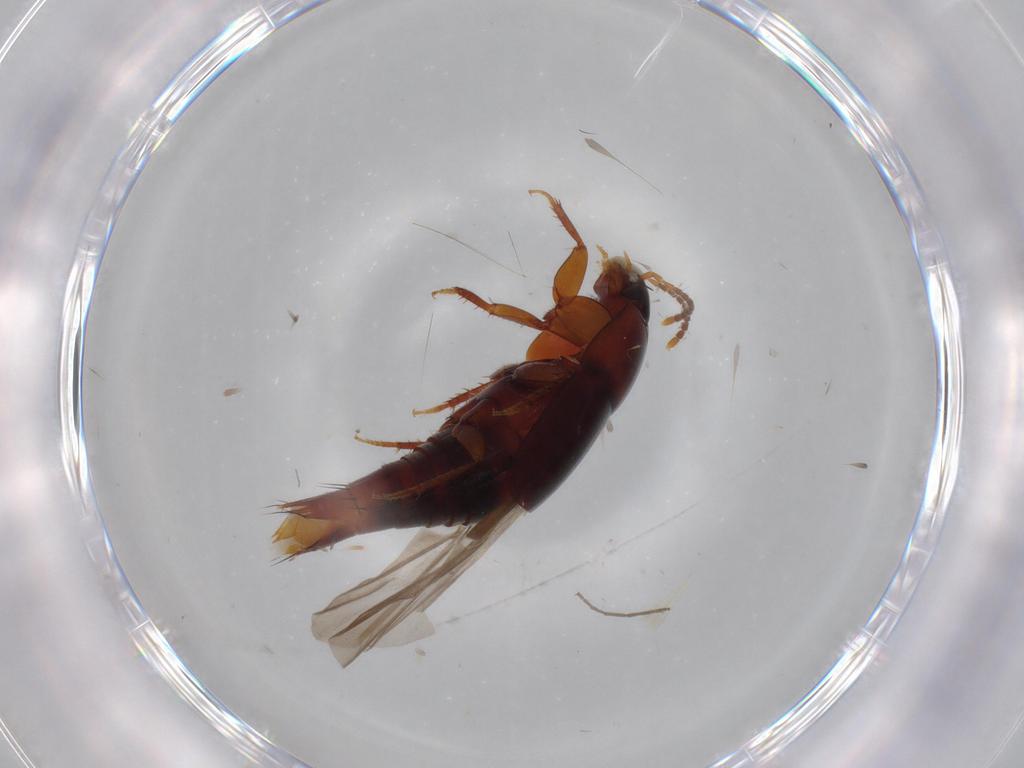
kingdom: Animalia
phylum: Arthropoda
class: Insecta
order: Coleoptera
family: Staphylinidae
